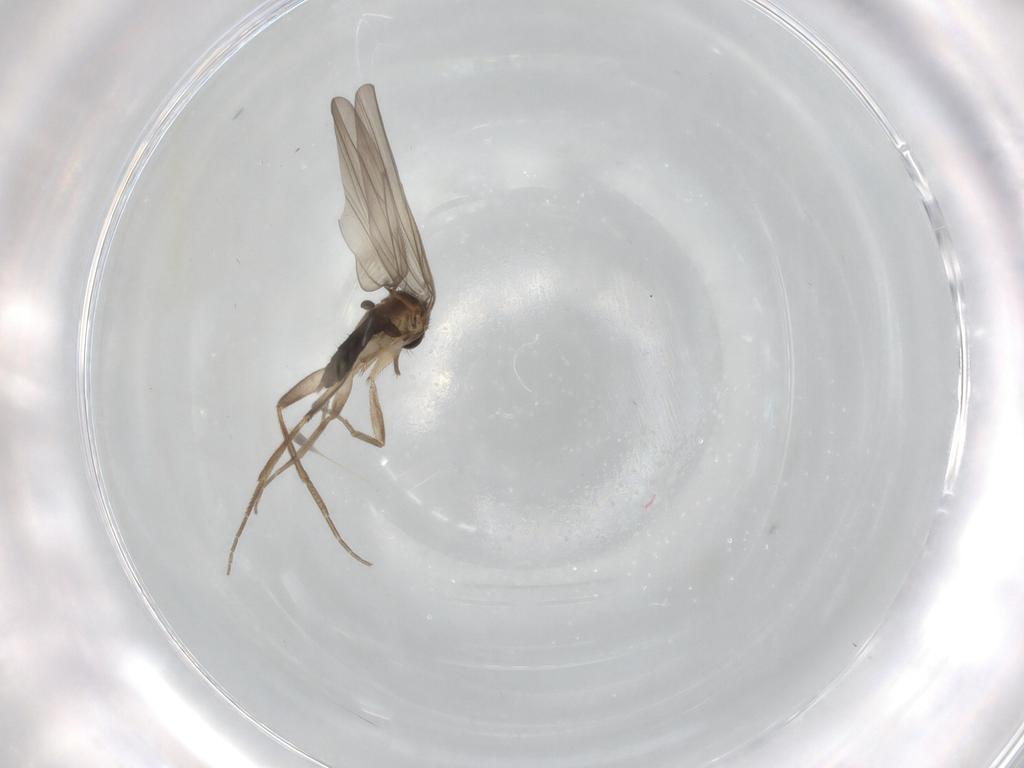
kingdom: Animalia
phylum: Arthropoda
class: Insecta
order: Diptera
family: Phoridae
